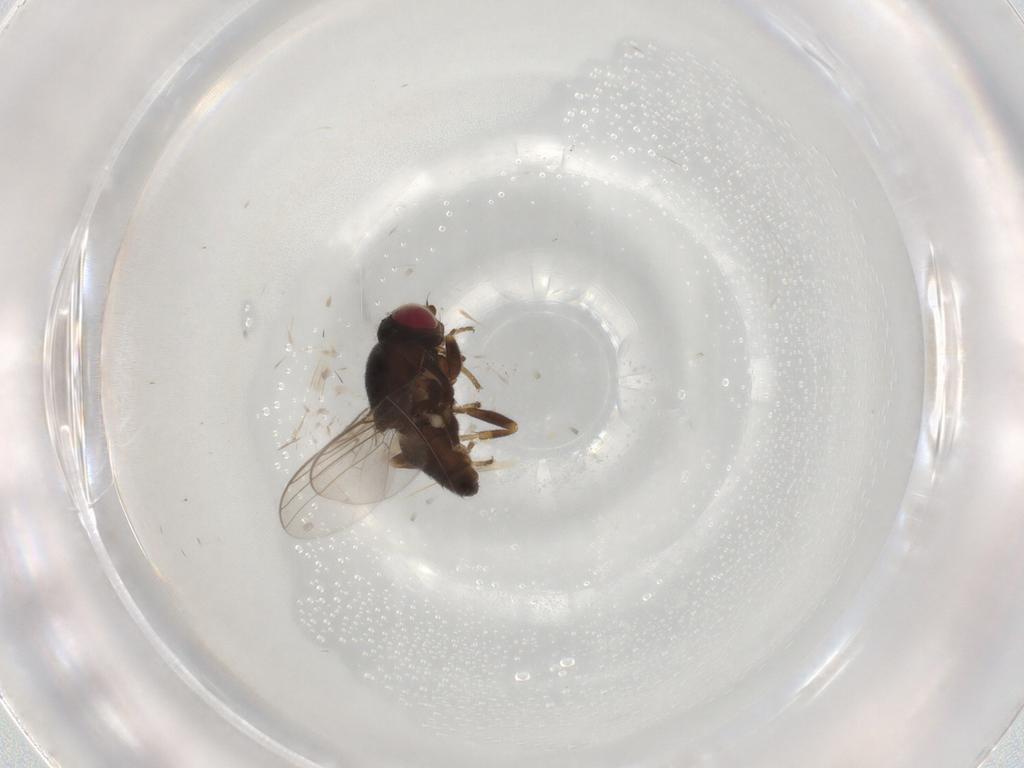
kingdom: Animalia
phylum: Arthropoda
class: Insecta
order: Diptera
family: Chloropidae
